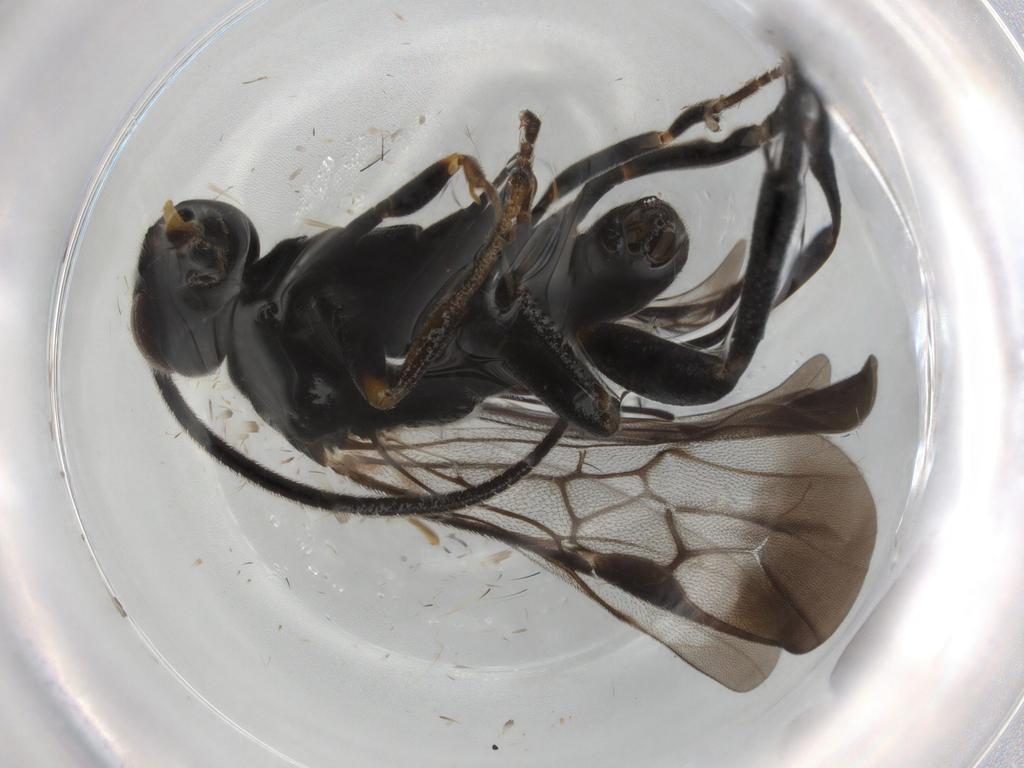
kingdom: Animalia
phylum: Arthropoda
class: Insecta
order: Hymenoptera
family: Braconidae
